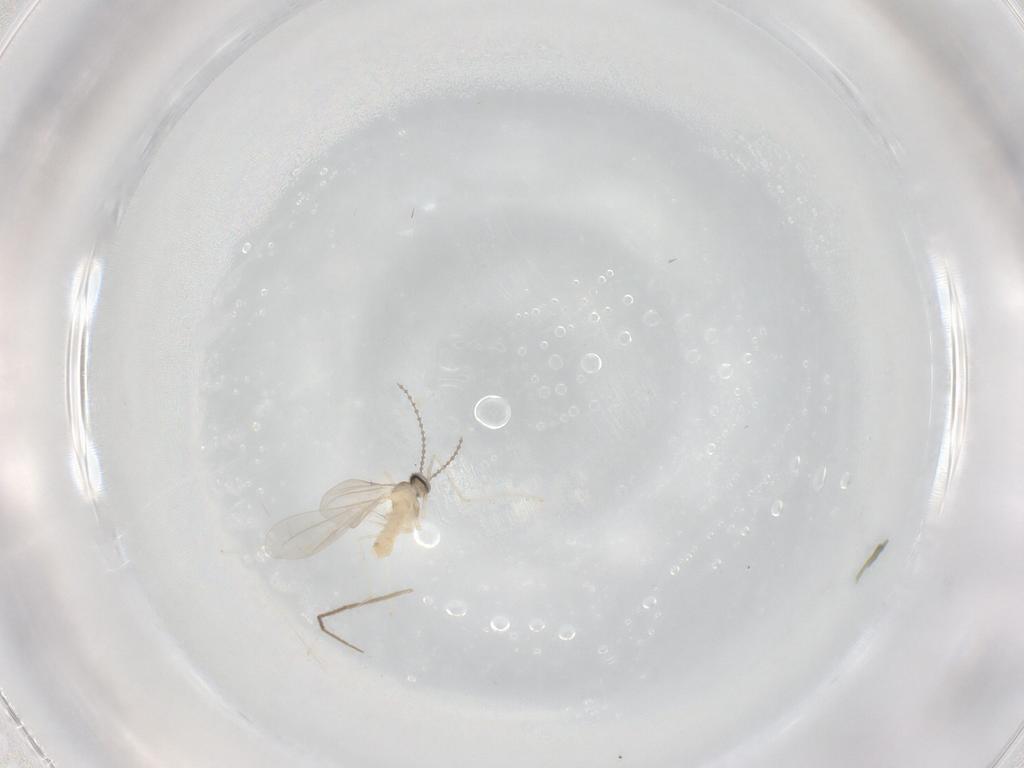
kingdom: Animalia
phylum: Arthropoda
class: Insecta
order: Diptera
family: Chironomidae
